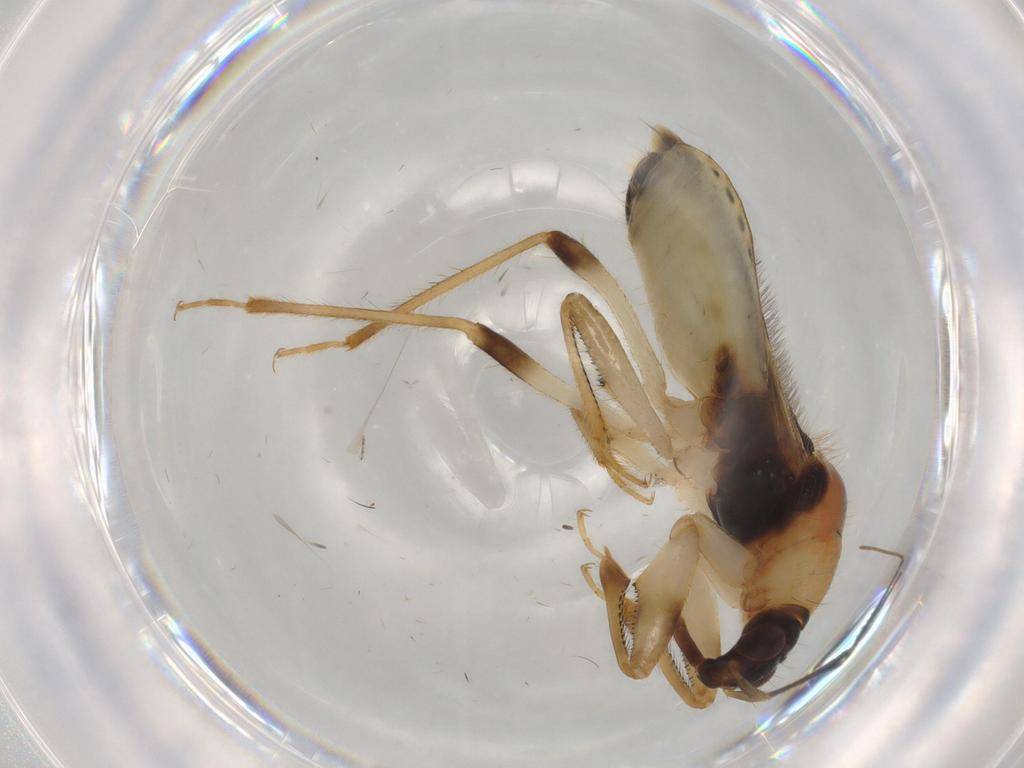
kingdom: Animalia
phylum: Arthropoda
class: Insecta
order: Hemiptera
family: Nabidae
